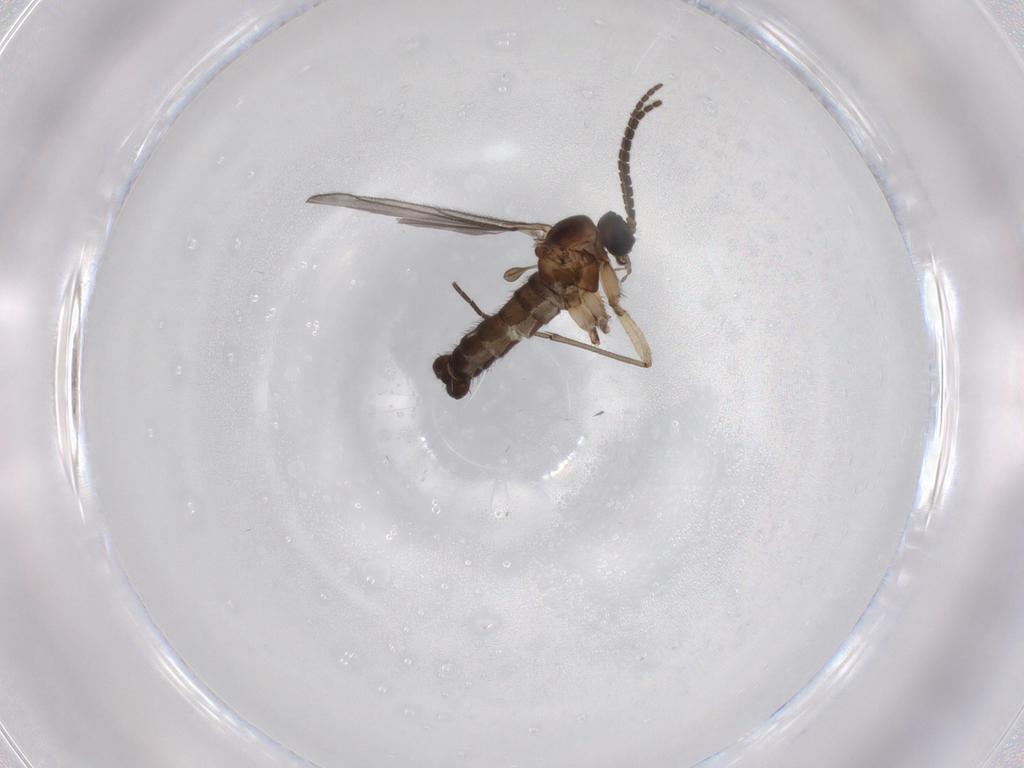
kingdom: Animalia
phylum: Arthropoda
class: Insecta
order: Diptera
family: Sciaridae
